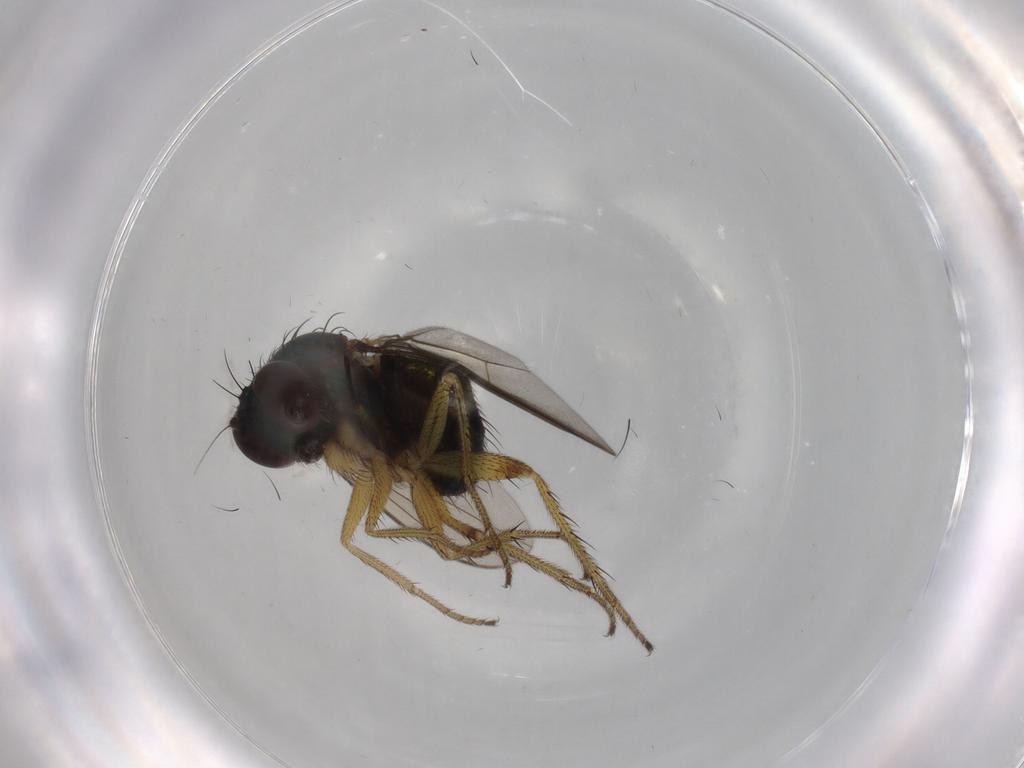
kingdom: Animalia
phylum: Arthropoda
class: Insecta
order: Diptera
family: Dolichopodidae
